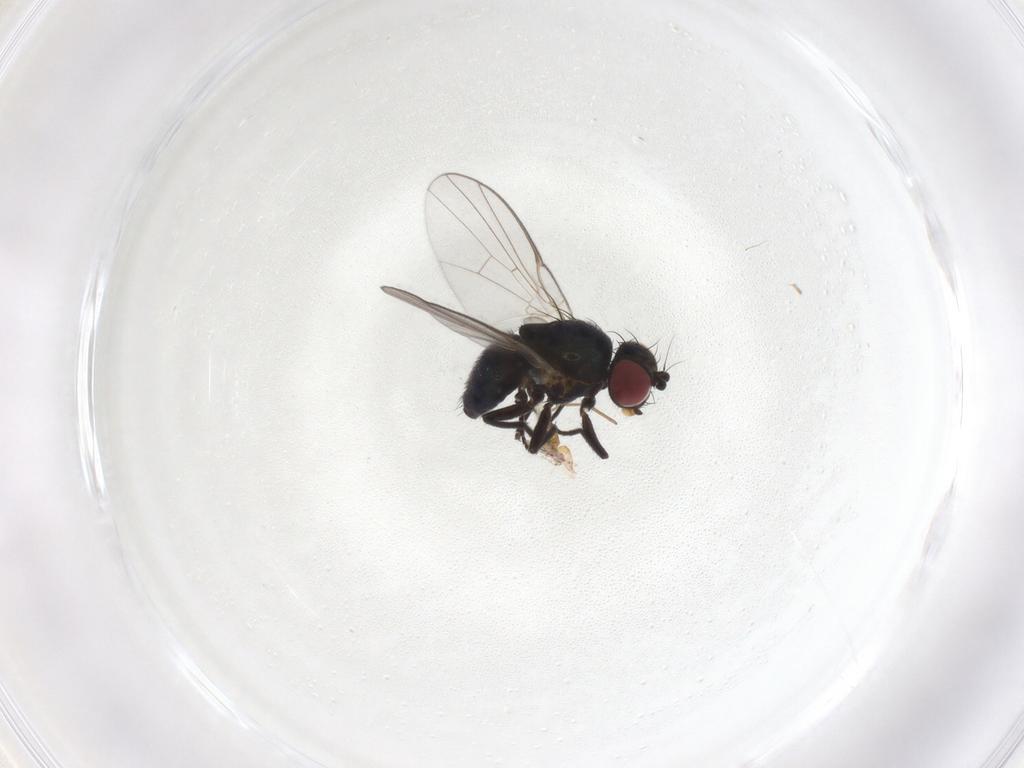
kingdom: Animalia
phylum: Arthropoda
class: Insecta
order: Diptera
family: Agromyzidae
